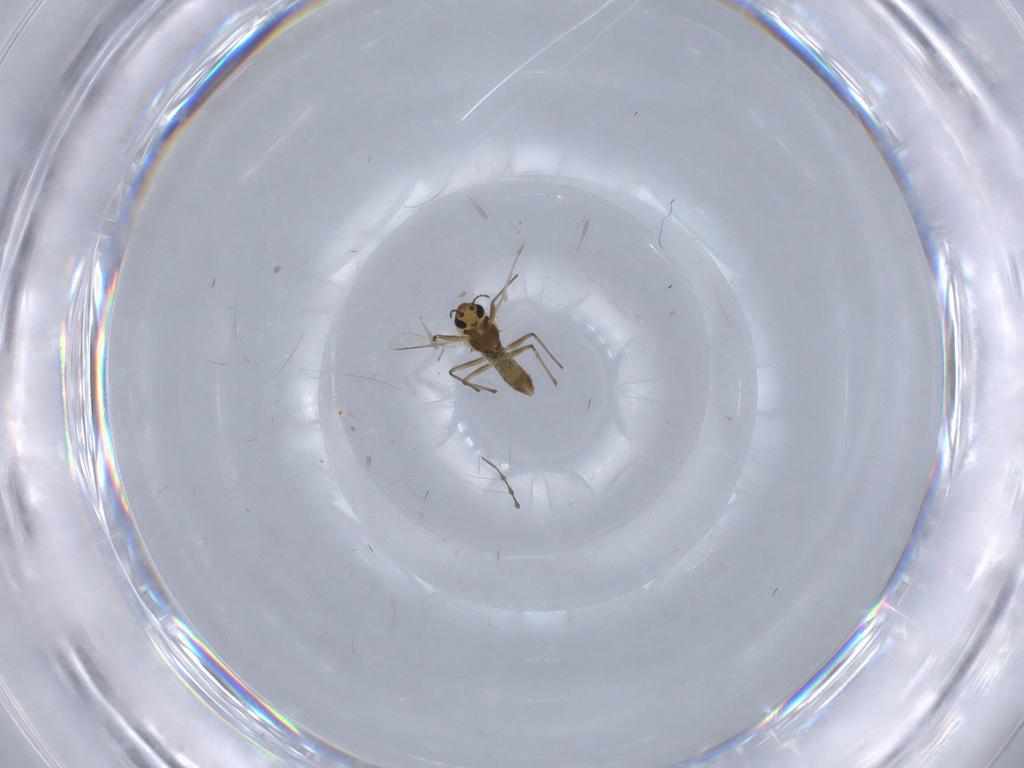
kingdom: Animalia
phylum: Arthropoda
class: Insecta
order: Diptera
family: Chironomidae
